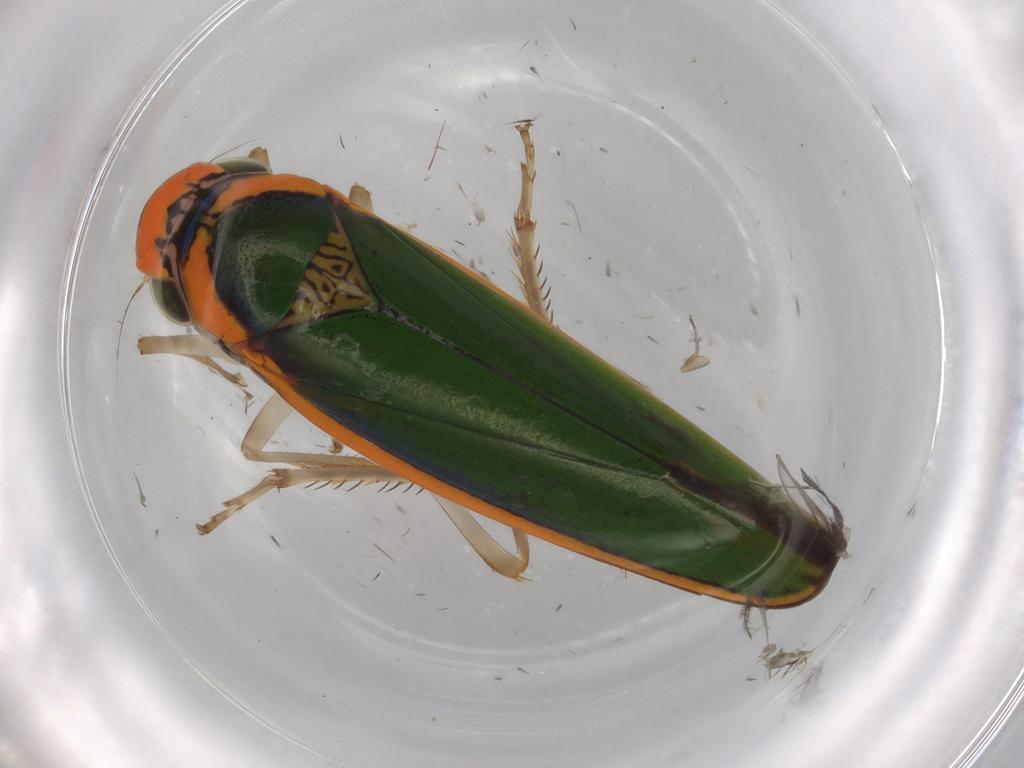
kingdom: Animalia
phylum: Arthropoda
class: Insecta
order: Hemiptera
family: Cicadellidae
